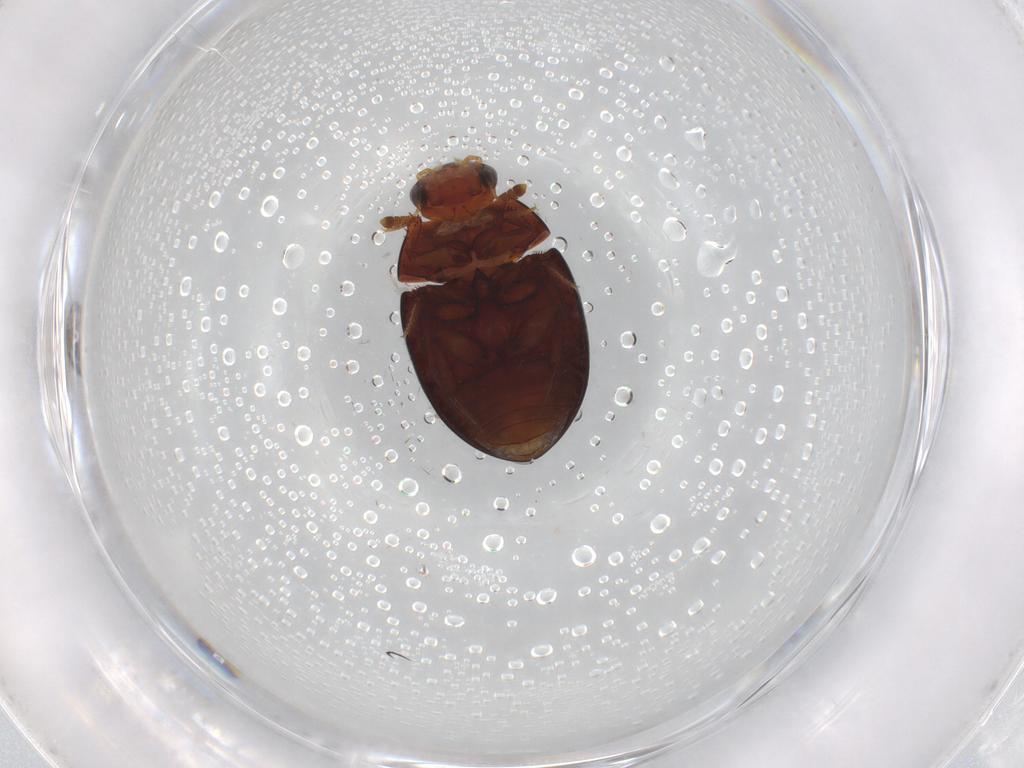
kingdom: Animalia
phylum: Arthropoda
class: Insecta
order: Coleoptera
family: Hydrophilidae
